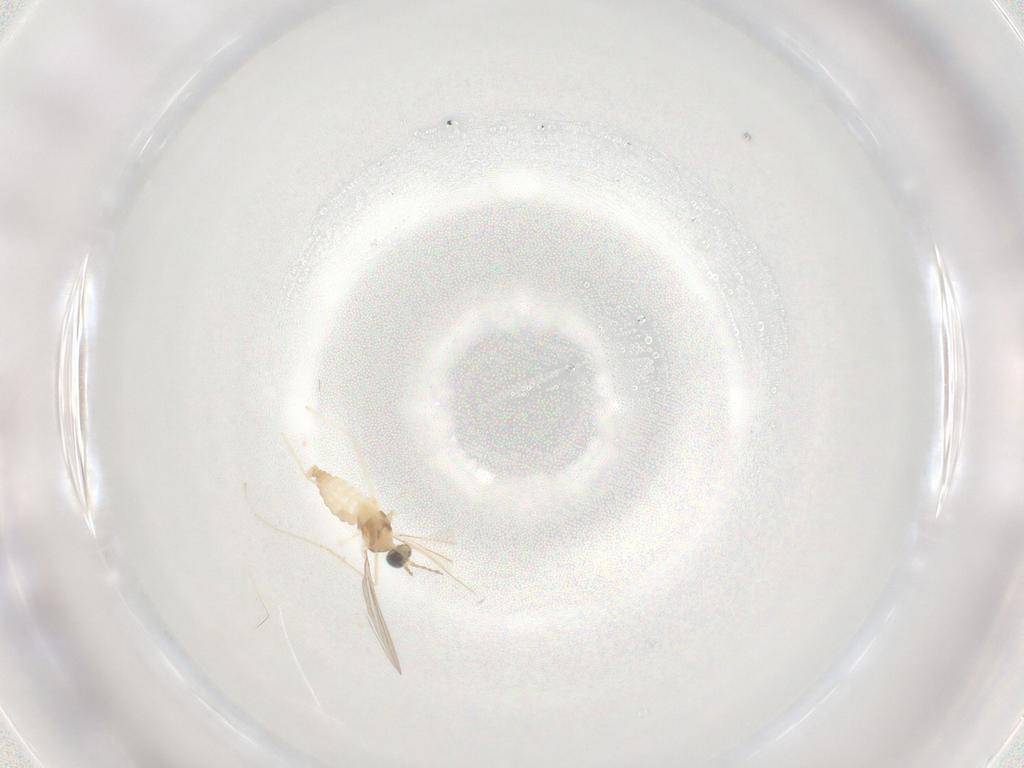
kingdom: Animalia
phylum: Arthropoda
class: Insecta
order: Diptera
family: Cecidomyiidae
